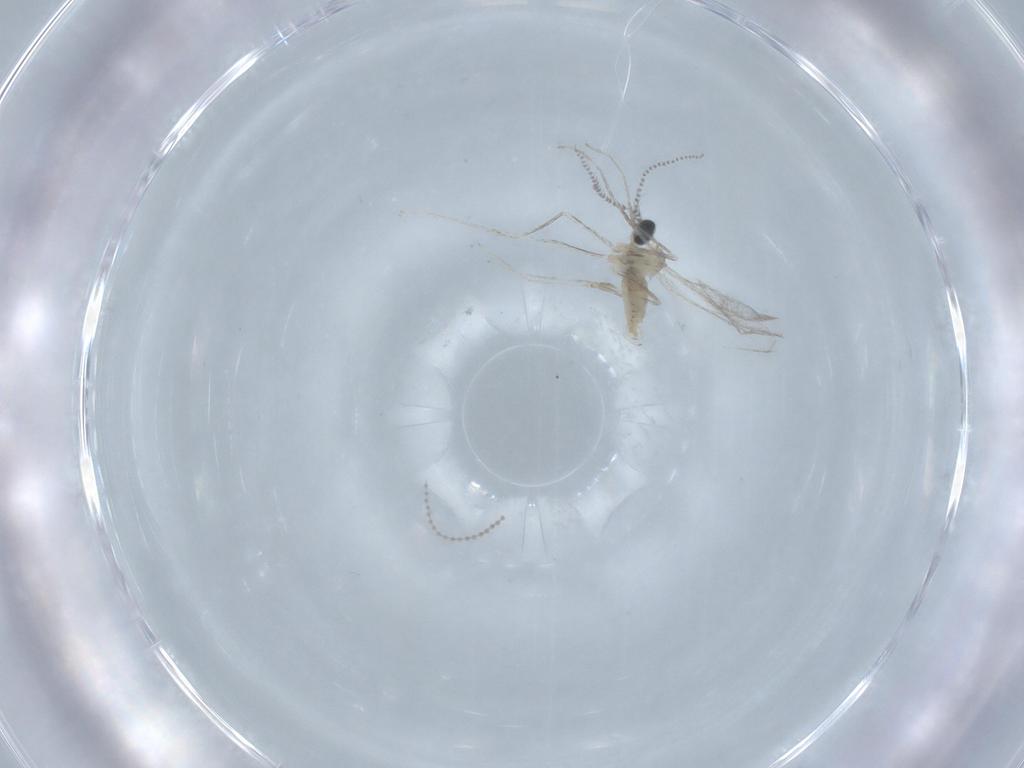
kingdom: Animalia
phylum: Arthropoda
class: Insecta
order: Diptera
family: Cecidomyiidae
